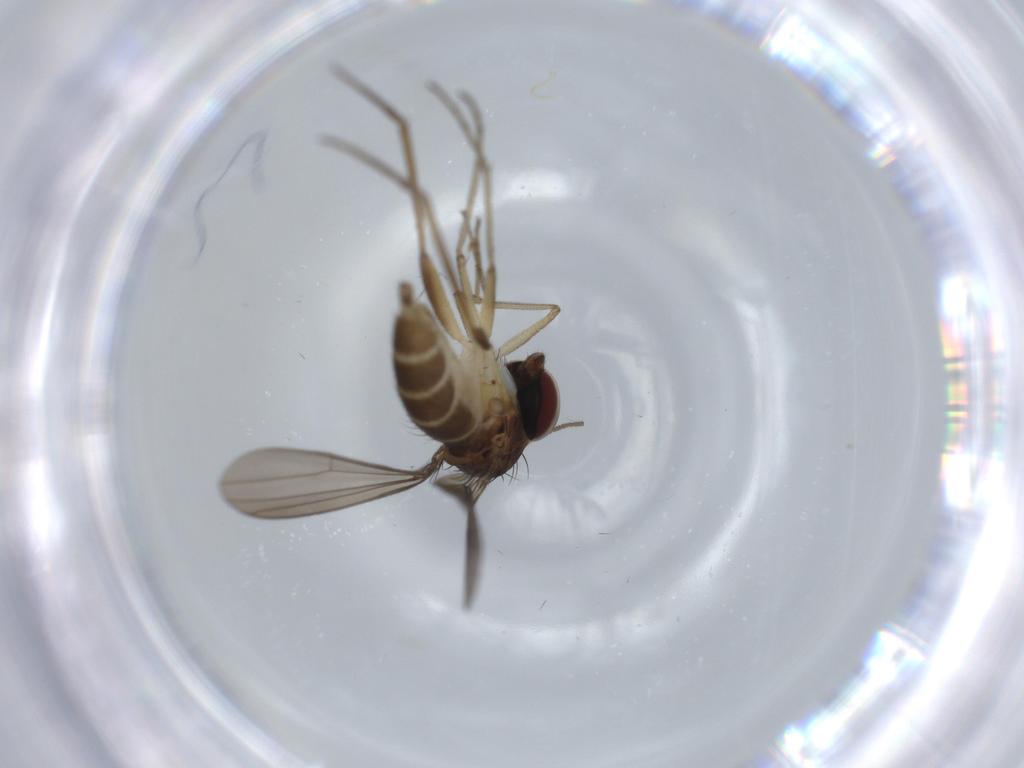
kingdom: Animalia
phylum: Arthropoda
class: Insecta
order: Diptera
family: Dolichopodidae
